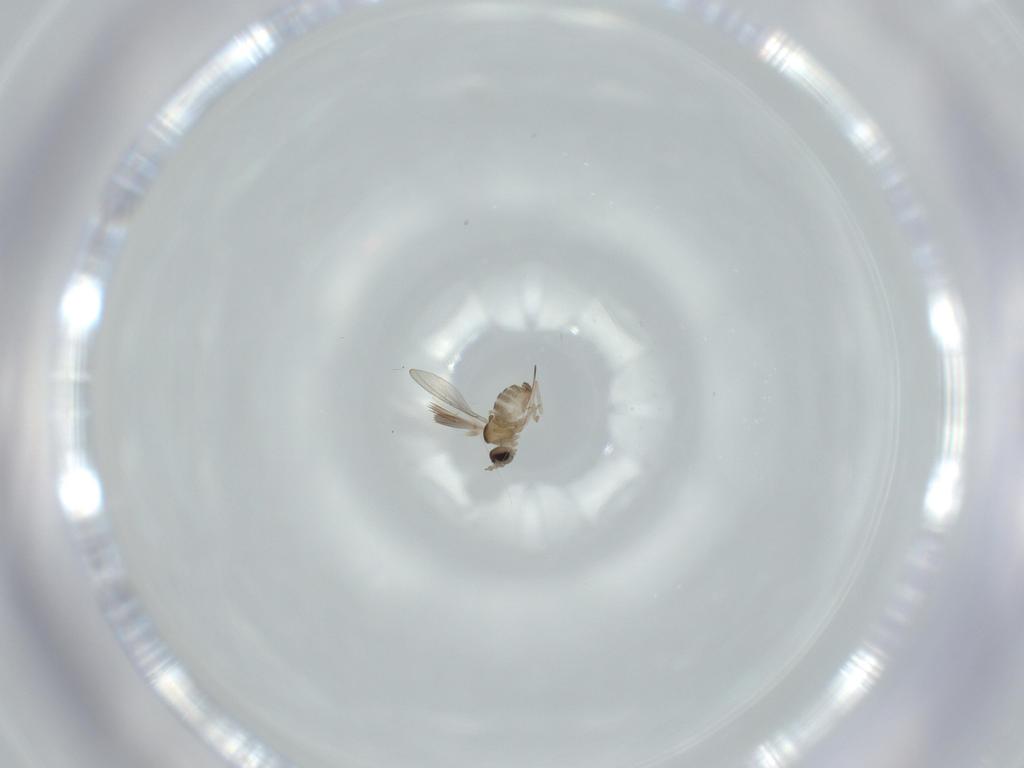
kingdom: Animalia
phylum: Arthropoda
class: Insecta
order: Diptera
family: Cecidomyiidae
